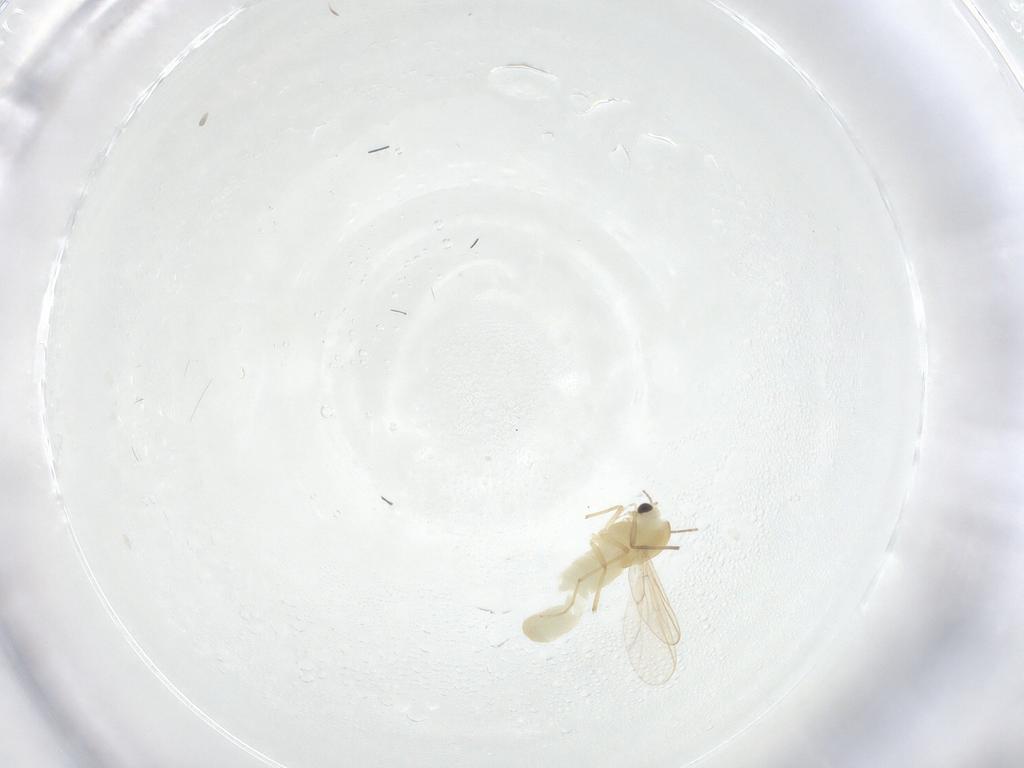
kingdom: Animalia
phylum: Arthropoda
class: Insecta
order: Diptera
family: Chironomidae
